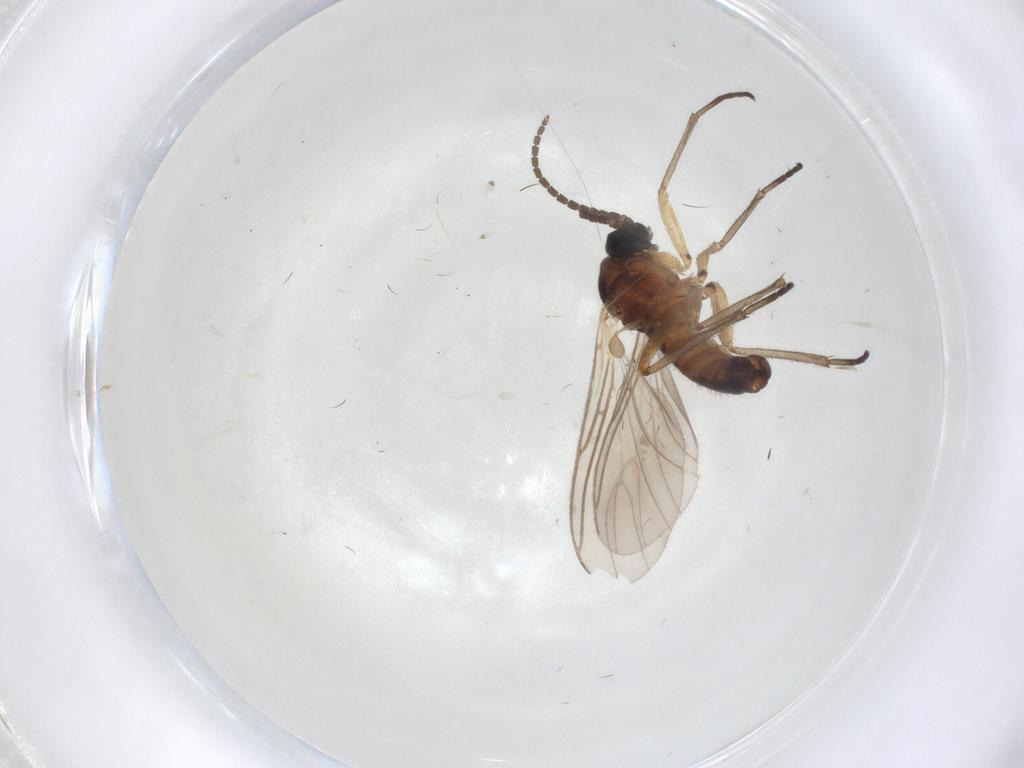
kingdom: Animalia
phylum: Arthropoda
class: Insecta
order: Diptera
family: Sciaridae
